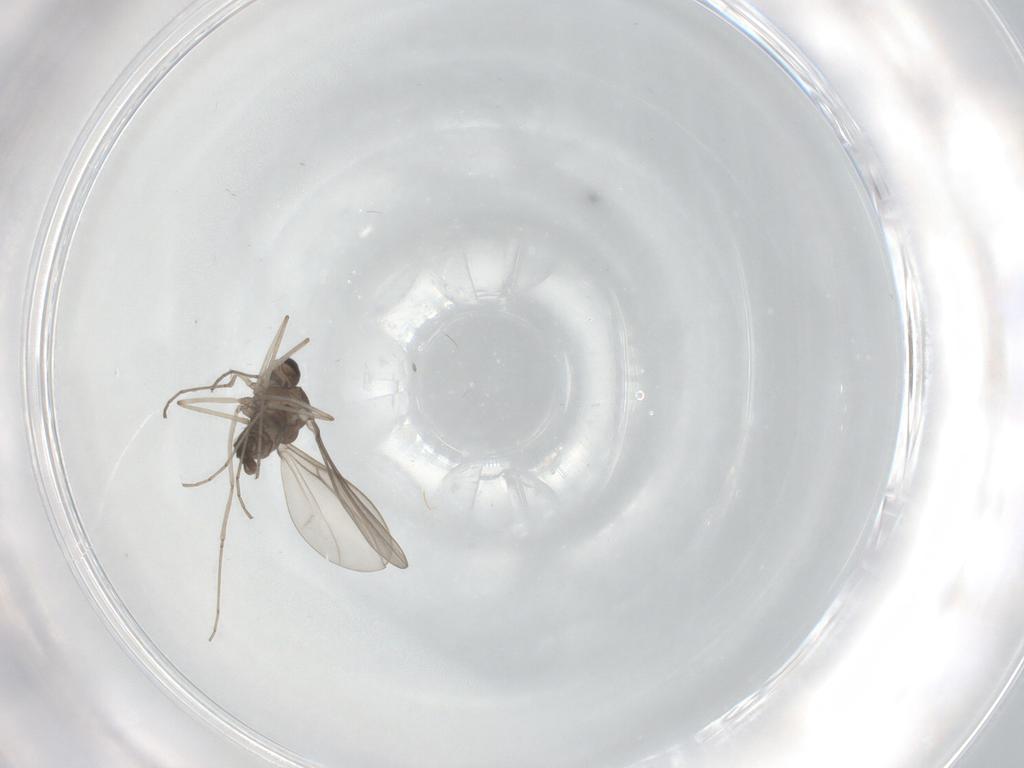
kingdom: Animalia
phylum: Arthropoda
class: Insecta
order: Diptera
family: Cecidomyiidae
